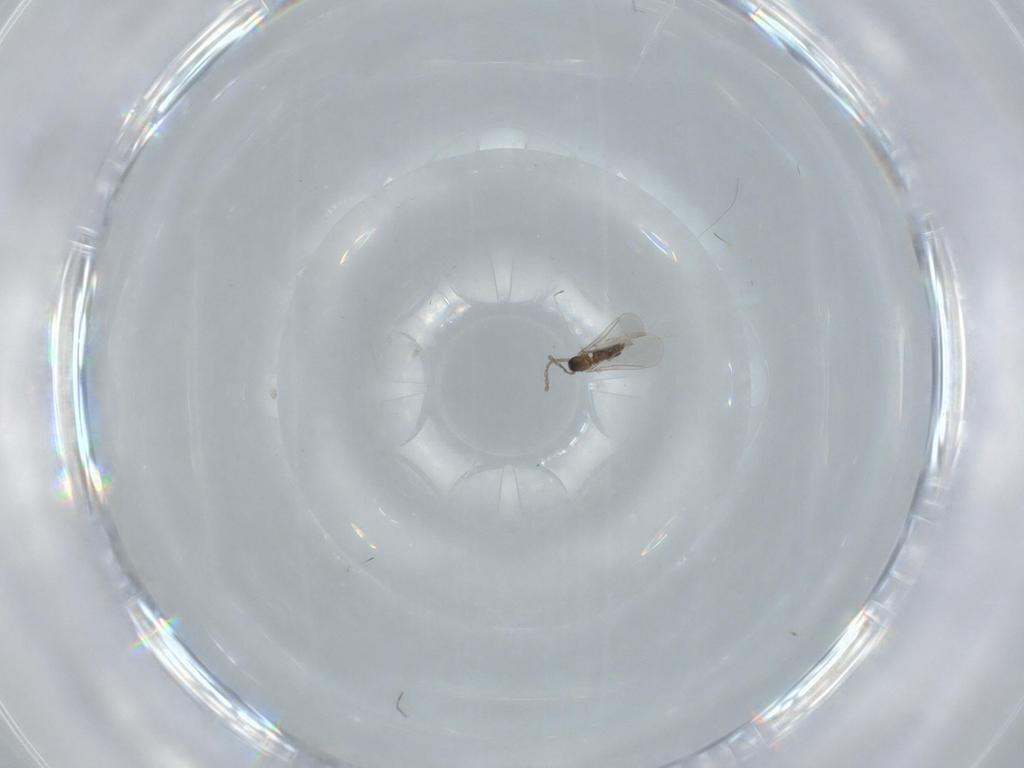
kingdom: Animalia
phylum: Arthropoda
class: Insecta
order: Diptera
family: Cecidomyiidae
